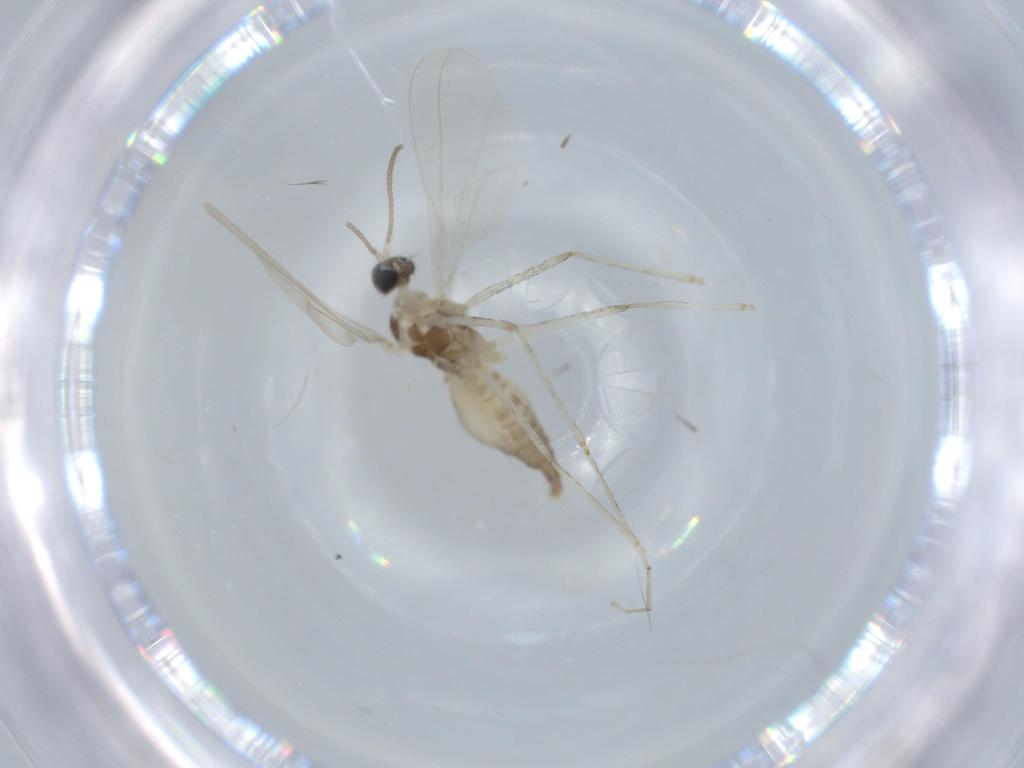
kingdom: Animalia
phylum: Arthropoda
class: Insecta
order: Diptera
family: Cecidomyiidae
